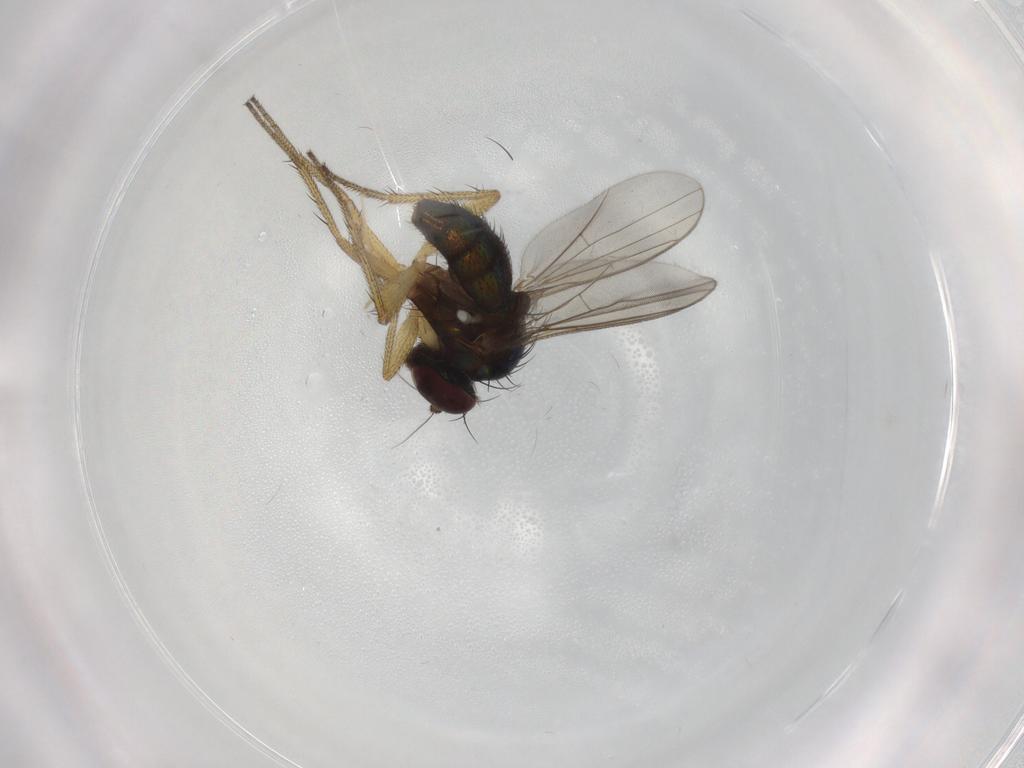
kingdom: Animalia
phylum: Arthropoda
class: Insecta
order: Diptera
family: Dolichopodidae
